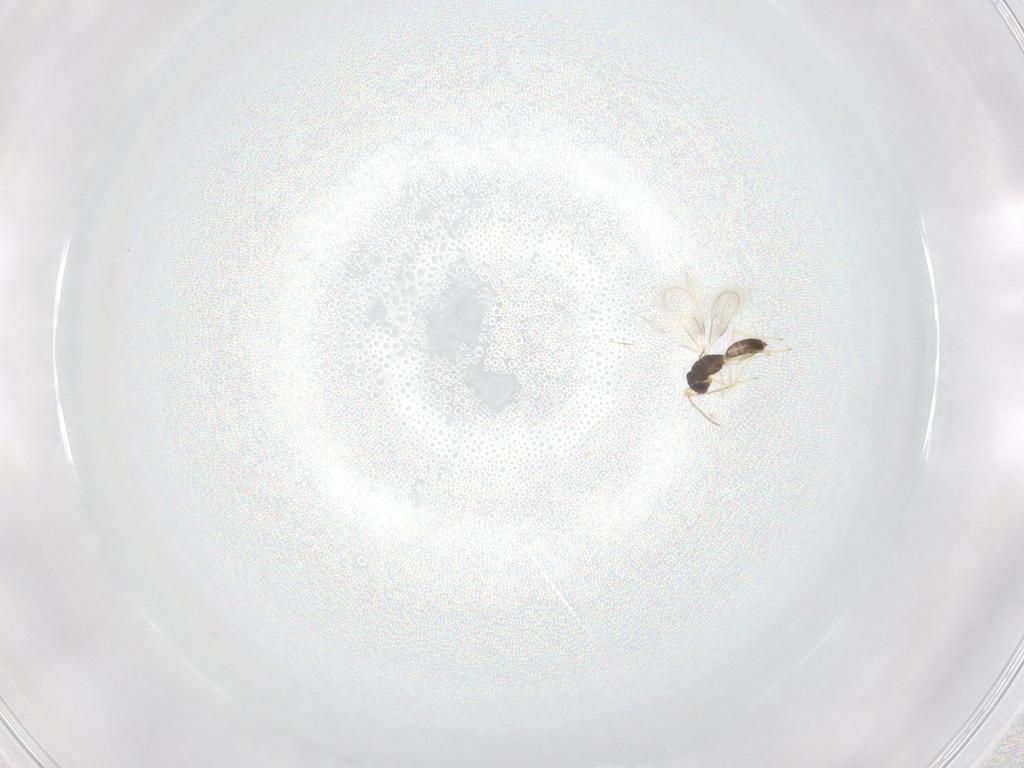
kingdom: Animalia
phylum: Arthropoda
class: Insecta
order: Hymenoptera
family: Eulophidae
